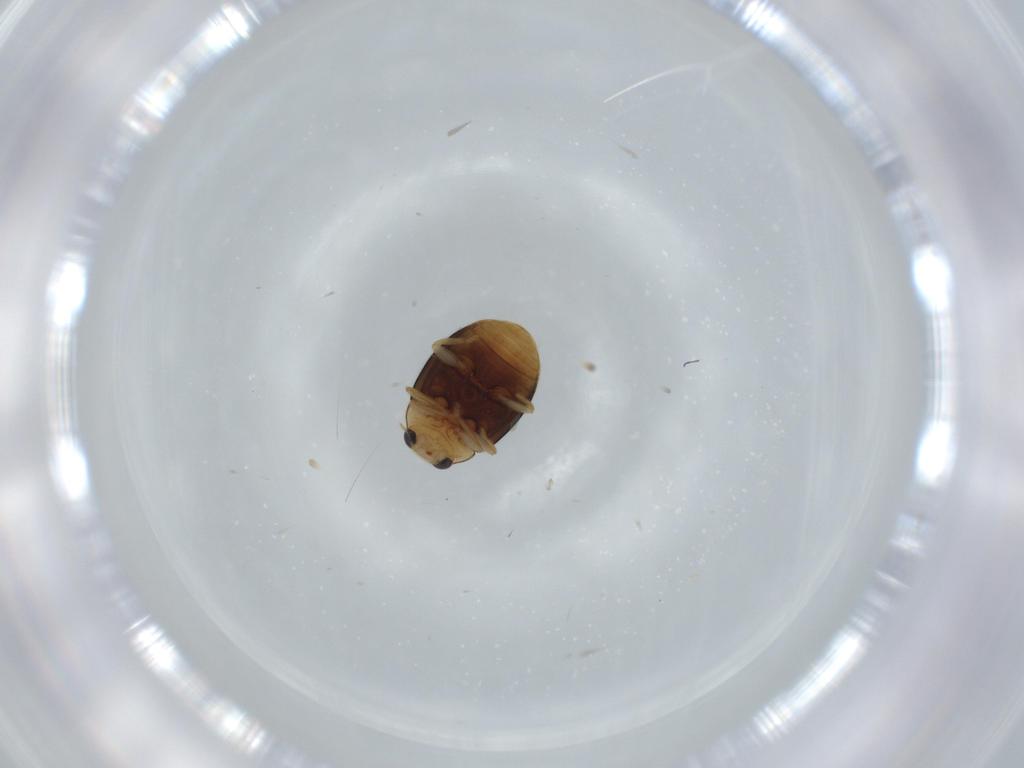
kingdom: Animalia
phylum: Arthropoda
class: Insecta
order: Coleoptera
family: Coccinellidae
